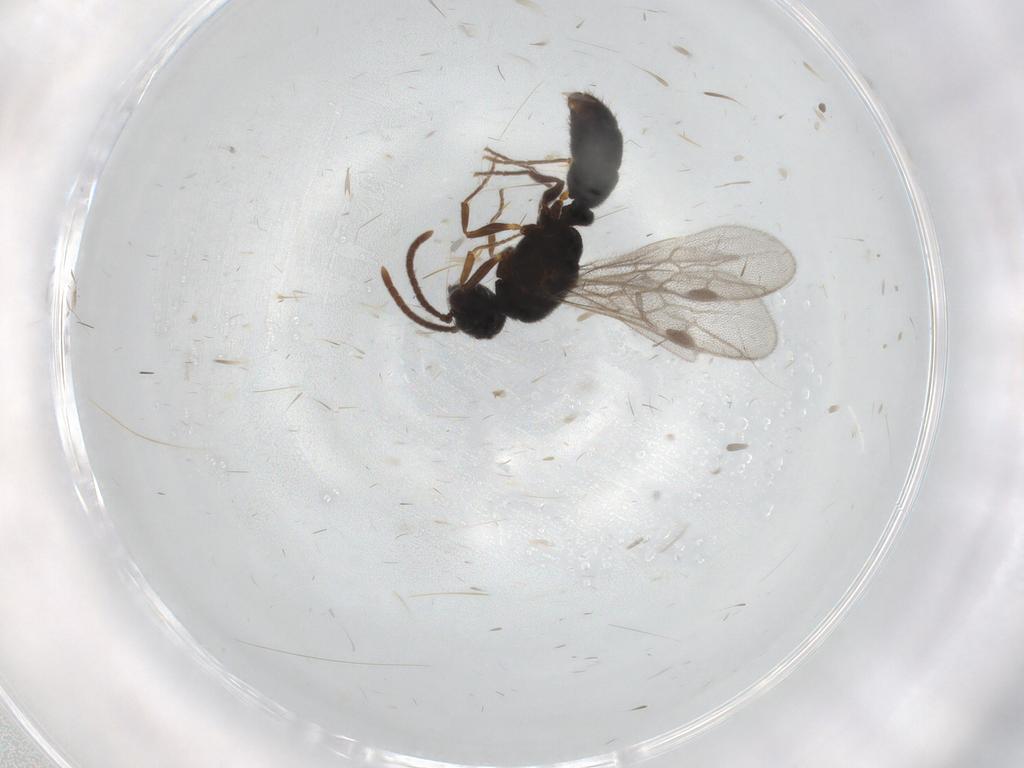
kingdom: Animalia
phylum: Arthropoda
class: Insecta
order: Hymenoptera
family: Formicidae
